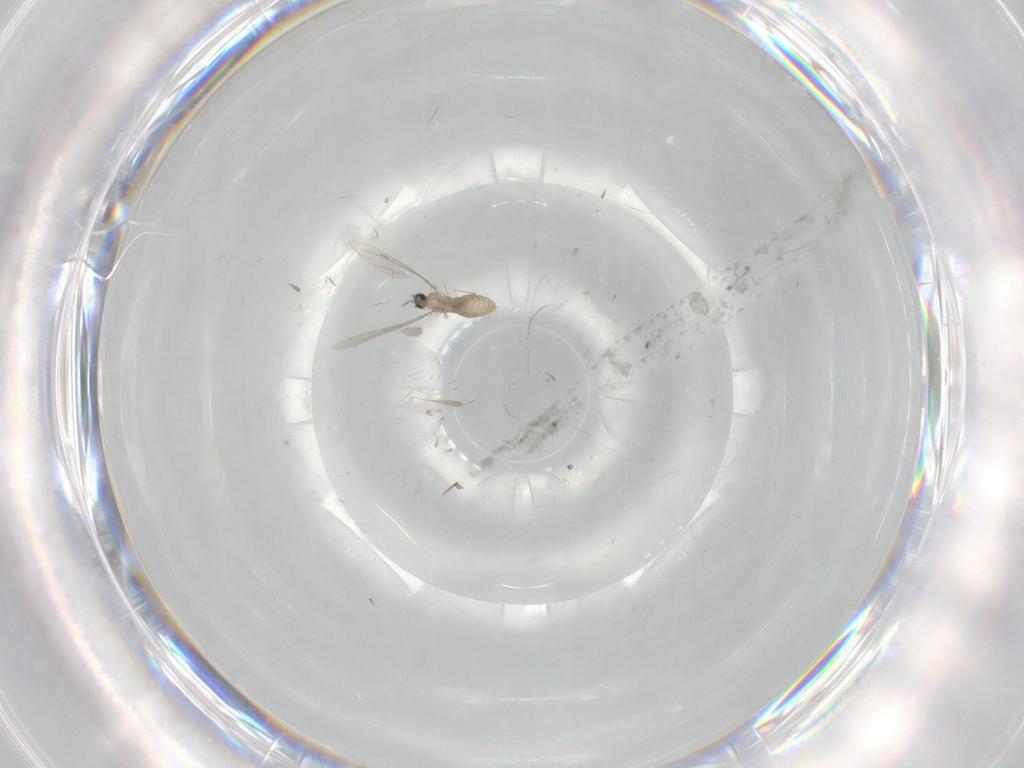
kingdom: Animalia
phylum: Arthropoda
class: Insecta
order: Diptera
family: Cecidomyiidae
